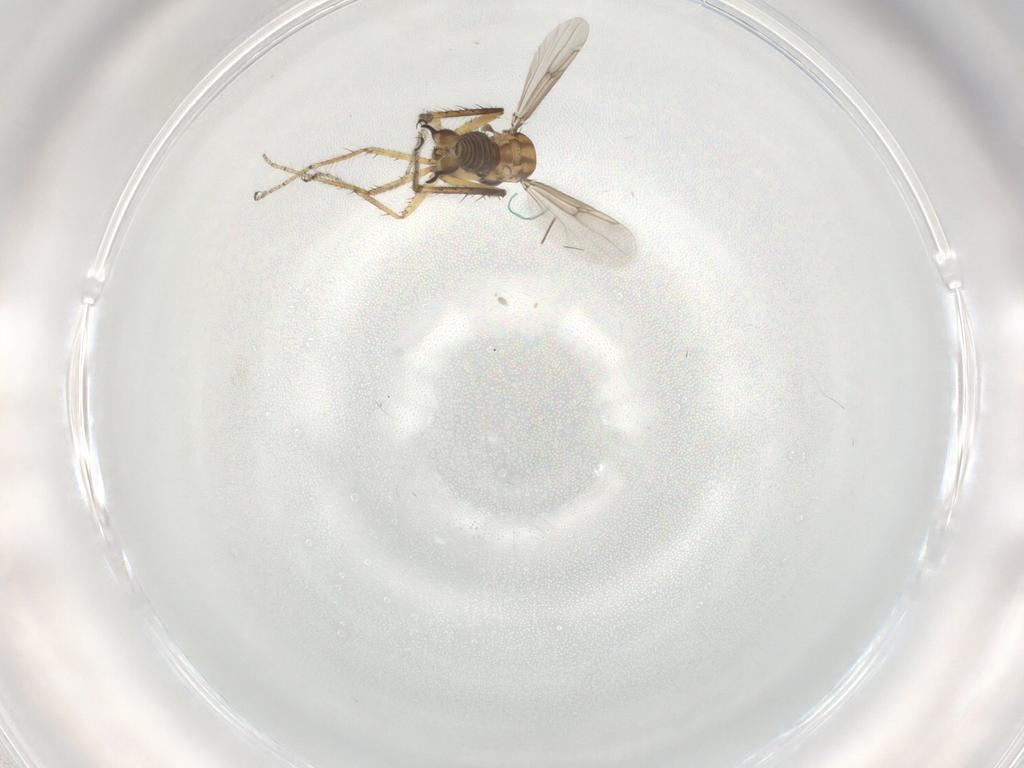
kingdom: Animalia
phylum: Arthropoda
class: Insecta
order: Diptera
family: Ceratopogonidae
